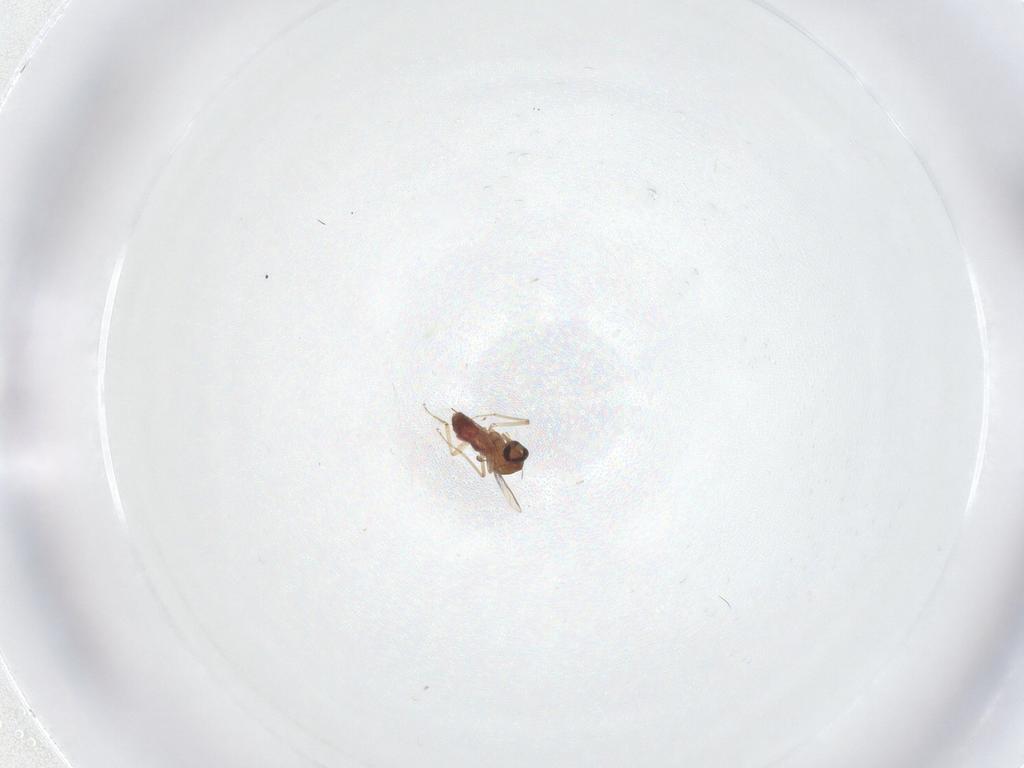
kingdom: Animalia
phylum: Arthropoda
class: Insecta
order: Diptera
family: Ceratopogonidae
